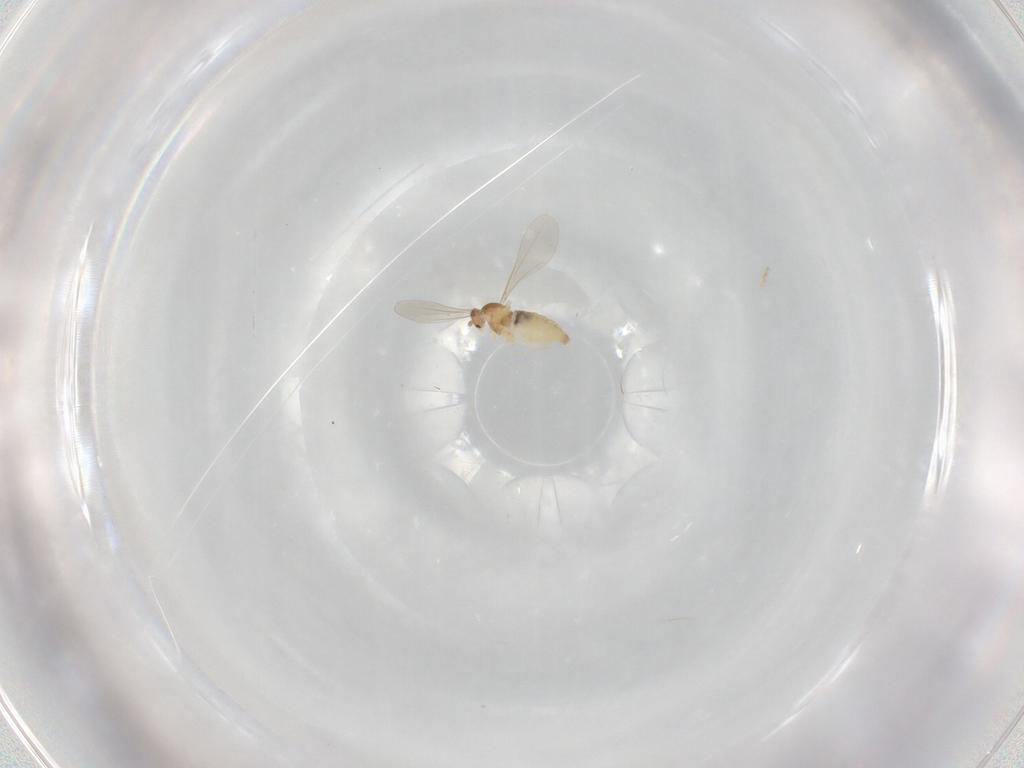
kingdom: Animalia
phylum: Arthropoda
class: Insecta
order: Diptera
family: Cecidomyiidae
